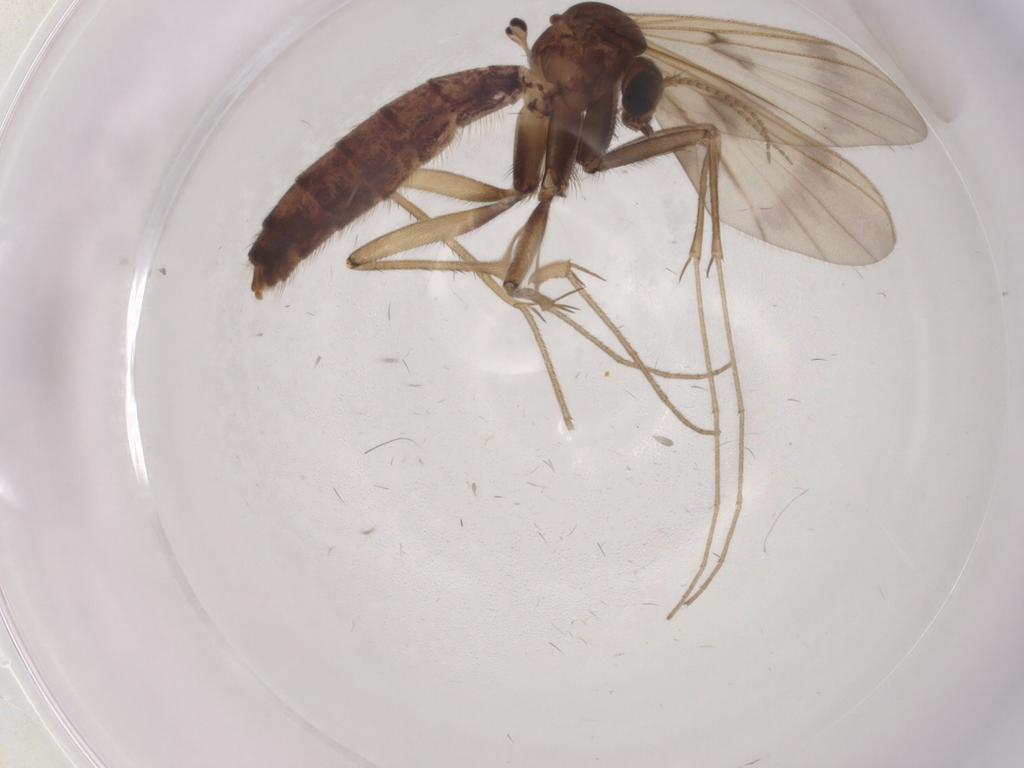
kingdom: Animalia
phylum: Arthropoda
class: Insecta
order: Diptera
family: Mycetophilidae
